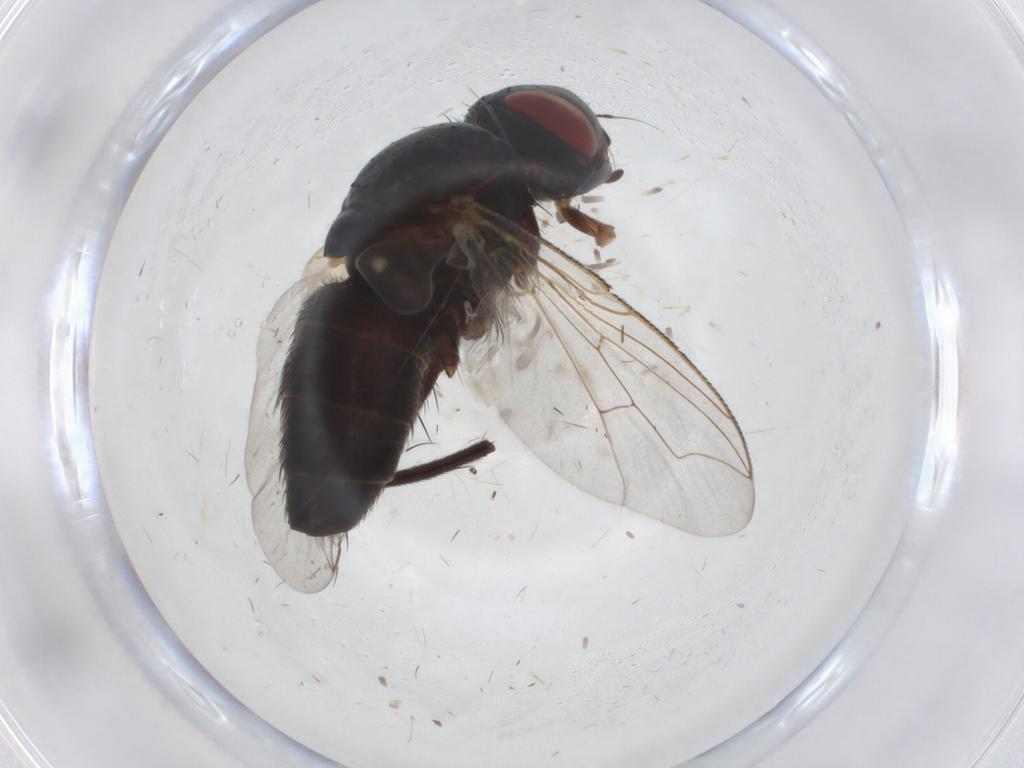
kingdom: Animalia
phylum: Arthropoda
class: Insecta
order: Diptera
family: Sarcophagidae
